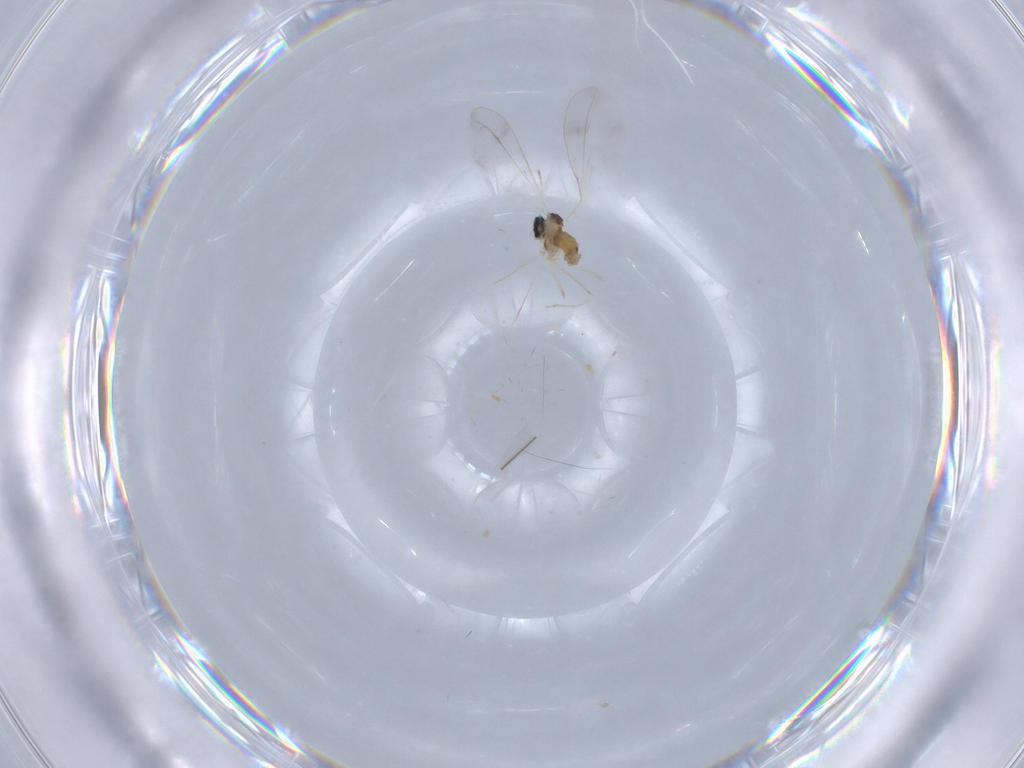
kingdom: Animalia
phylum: Arthropoda
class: Insecta
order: Diptera
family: Cecidomyiidae
